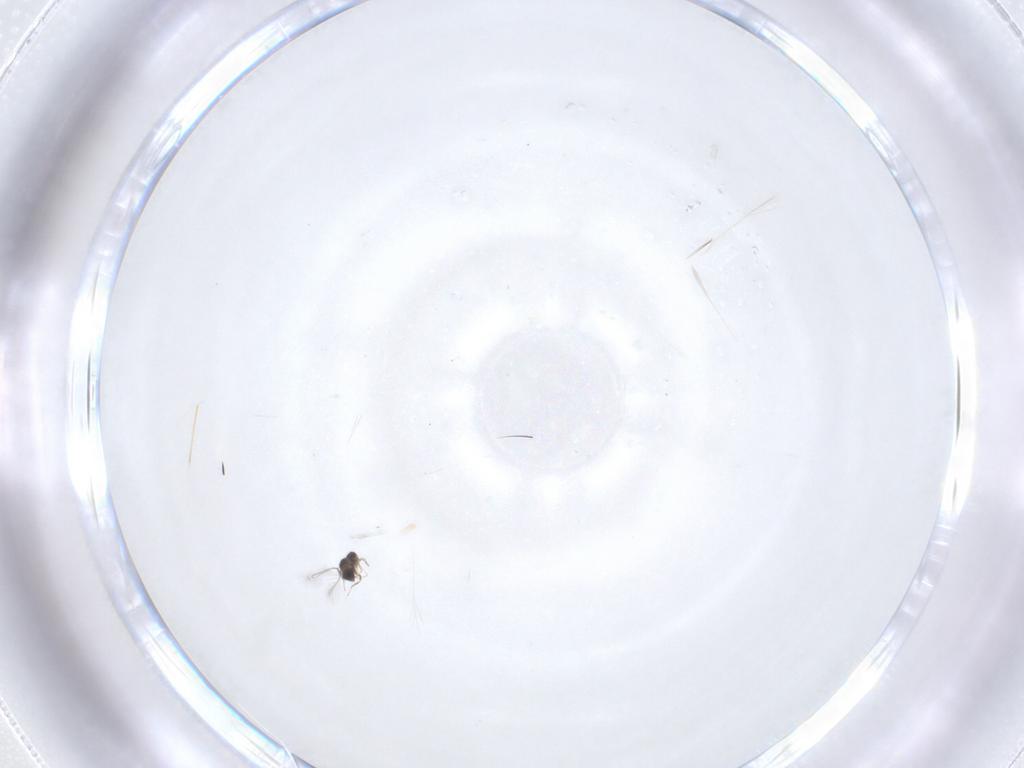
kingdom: Animalia
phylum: Arthropoda
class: Insecta
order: Hymenoptera
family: Mymaridae
